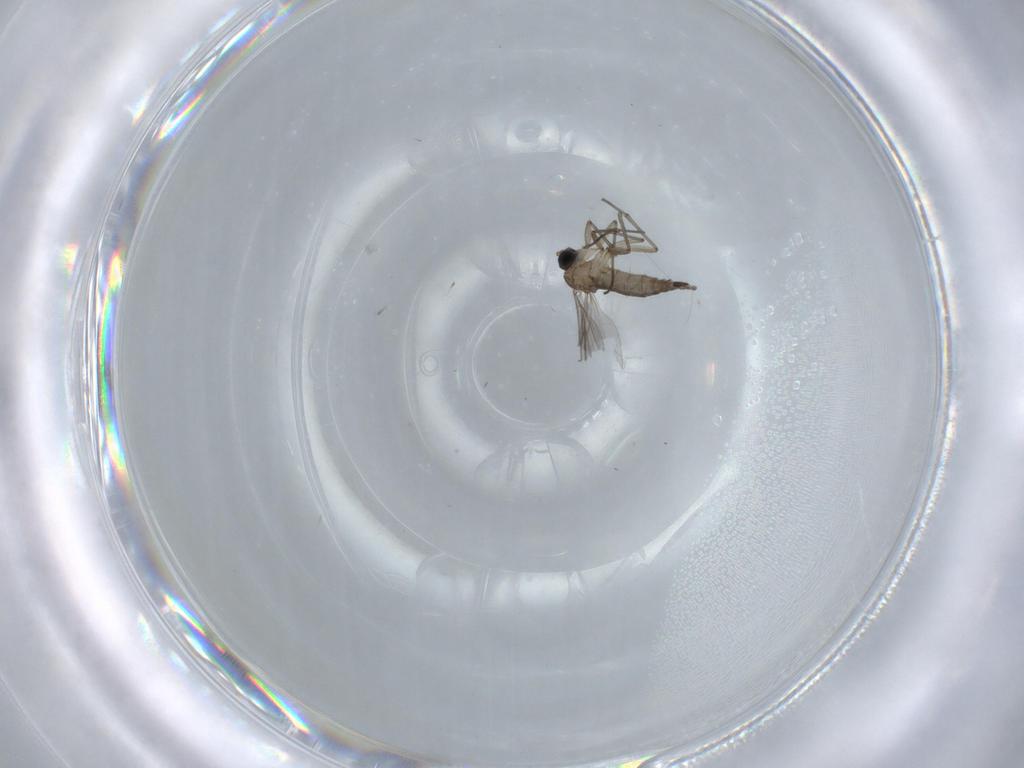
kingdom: Animalia
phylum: Arthropoda
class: Insecta
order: Diptera
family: Sciaridae
